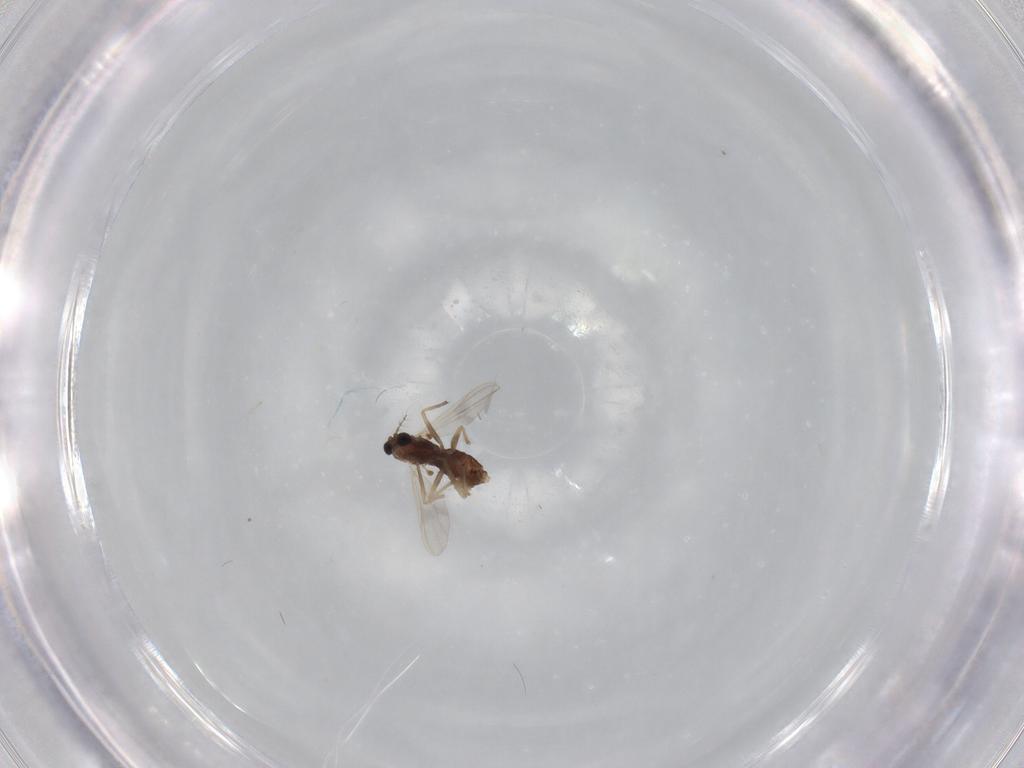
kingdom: Animalia
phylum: Arthropoda
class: Insecta
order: Diptera
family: Chironomidae
